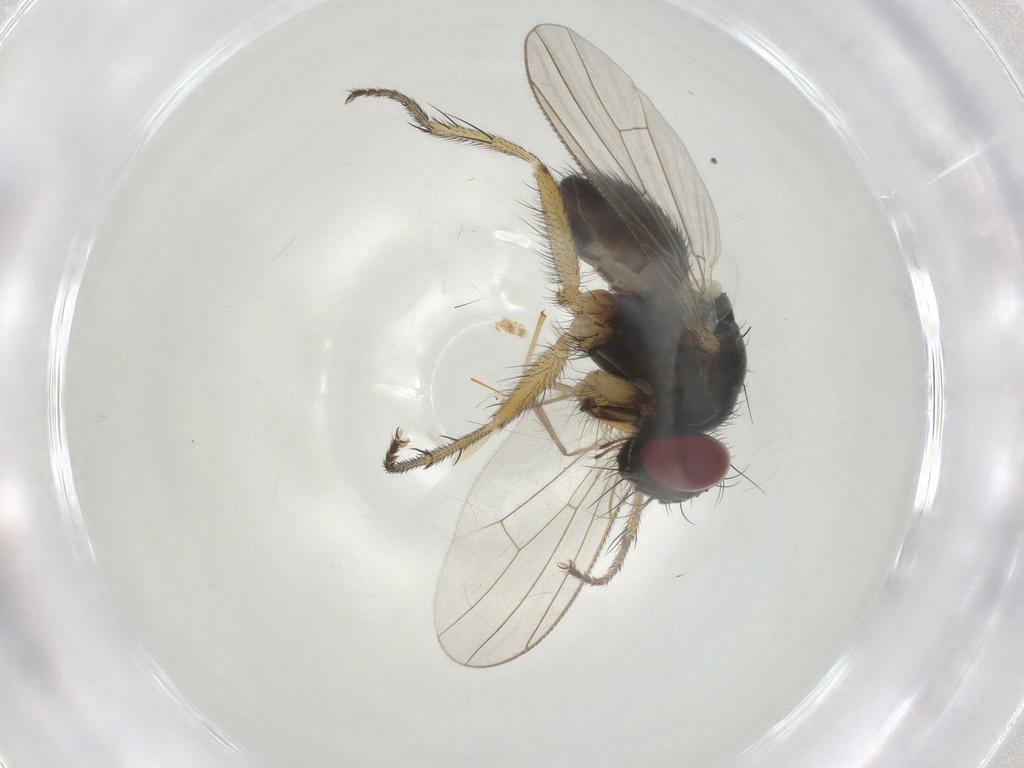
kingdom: Animalia
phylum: Arthropoda
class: Insecta
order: Diptera
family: Muscidae
